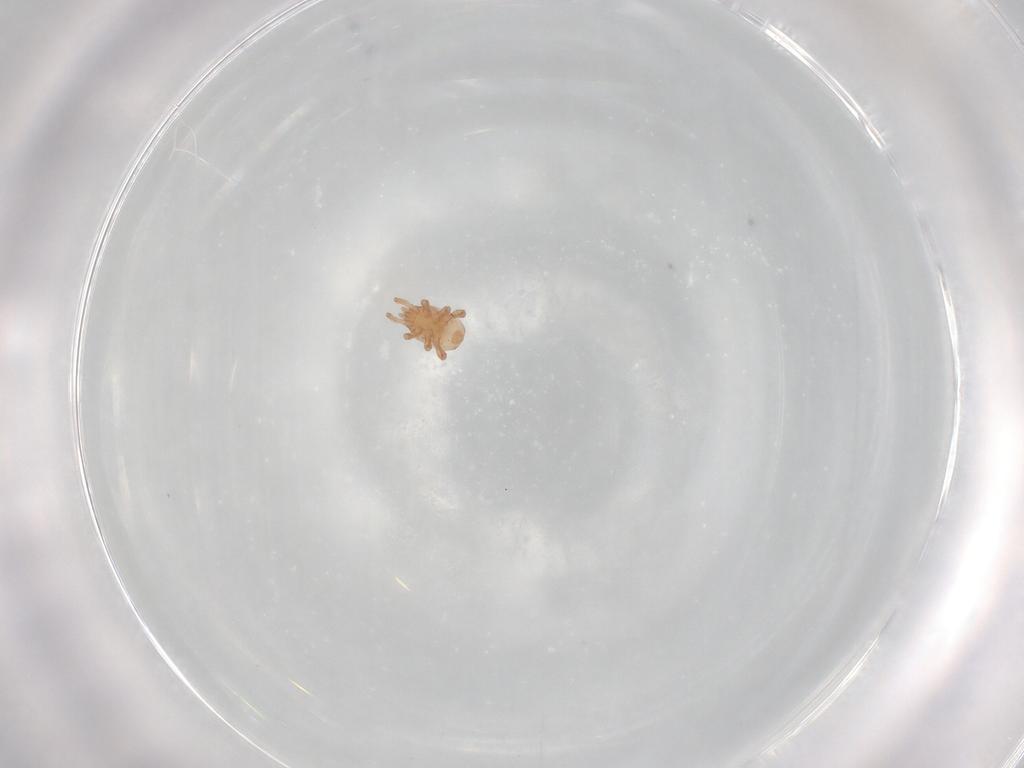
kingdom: Animalia
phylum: Arthropoda
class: Arachnida
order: Mesostigmata
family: Halolaelapidae
